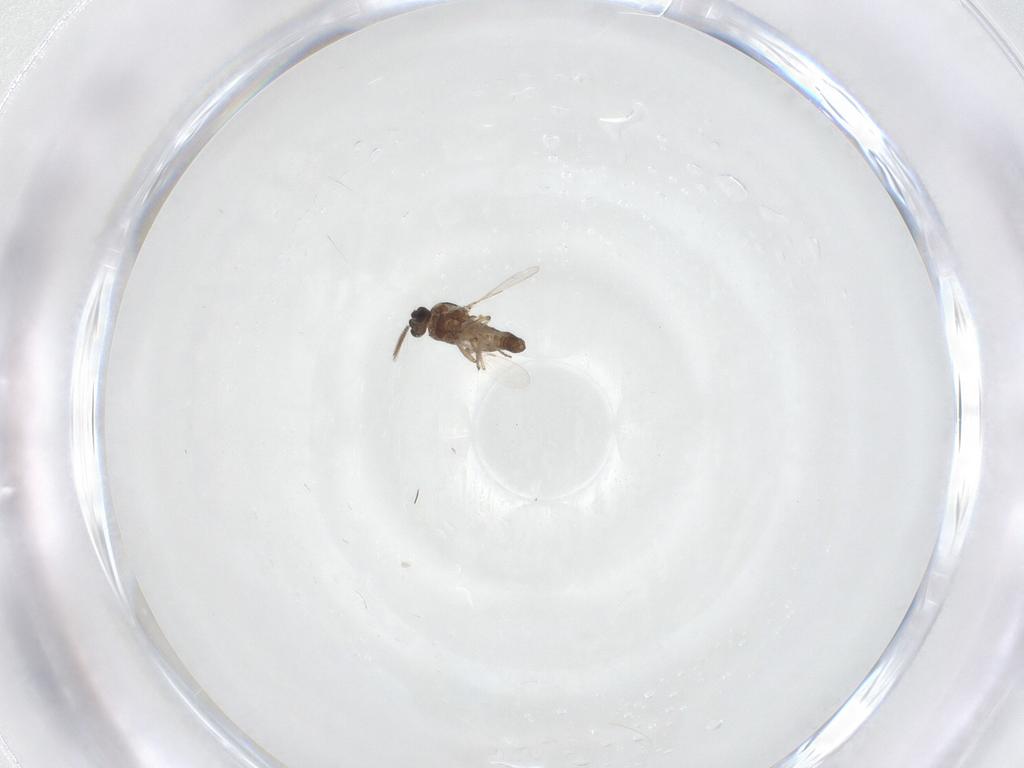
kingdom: Animalia
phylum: Arthropoda
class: Insecta
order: Diptera
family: Ceratopogonidae
